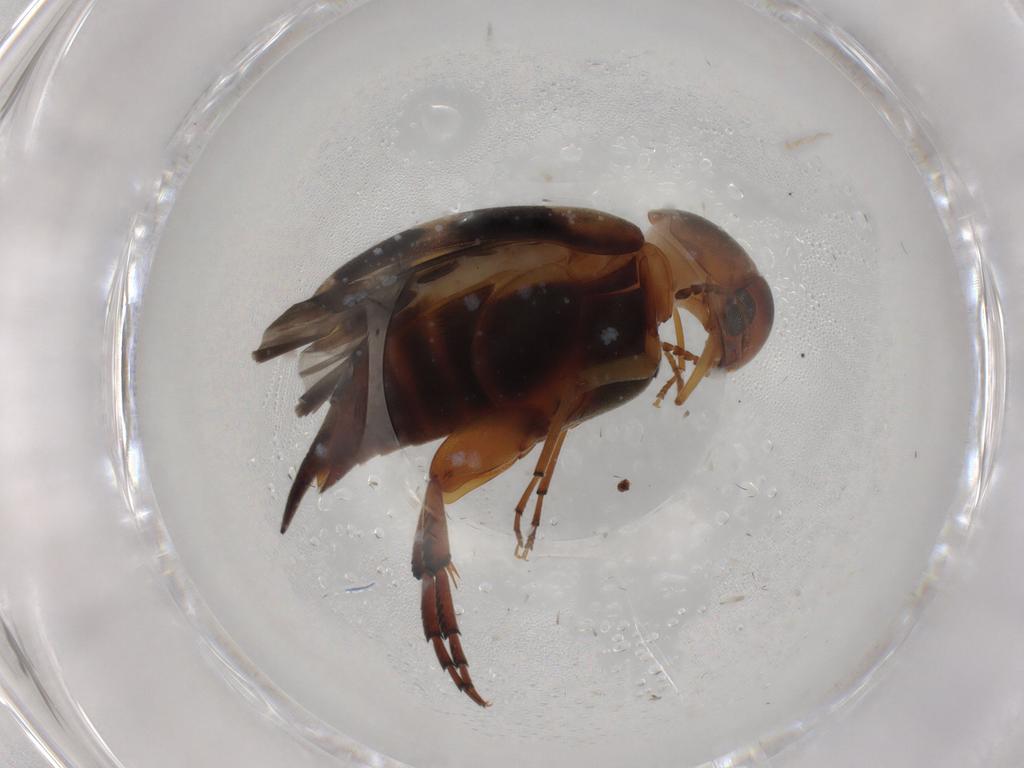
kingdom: Animalia
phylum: Arthropoda
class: Insecta
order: Coleoptera
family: Mordellidae
